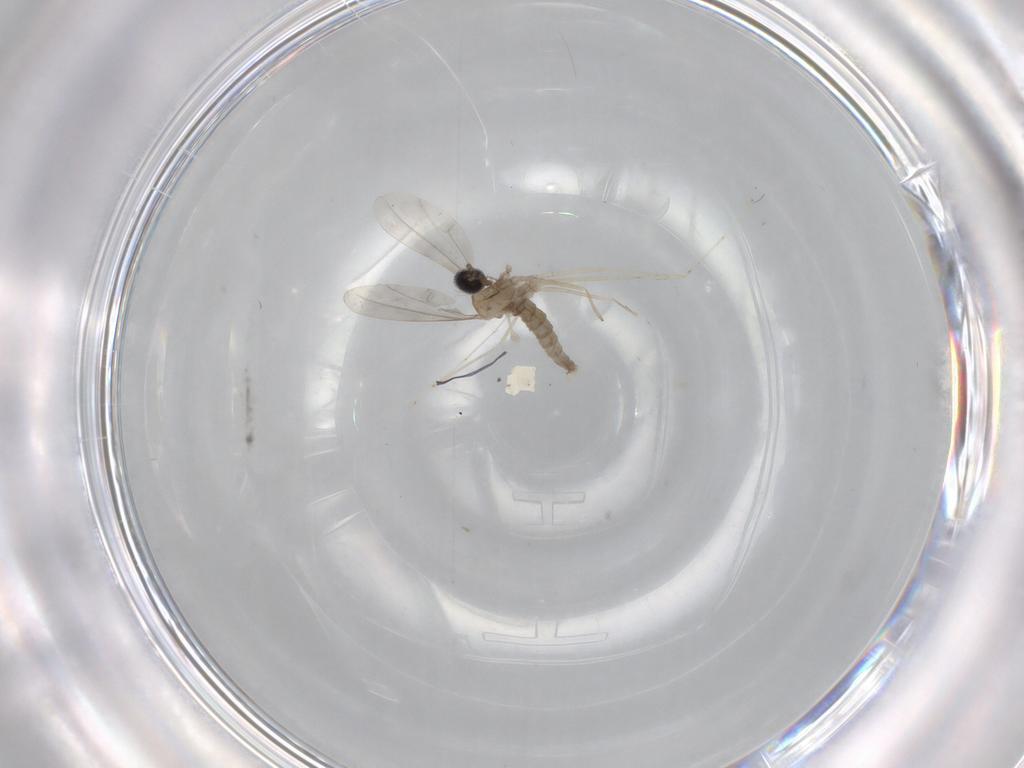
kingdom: Animalia
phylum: Arthropoda
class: Insecta
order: Diptera
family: Cecidomyiidae
